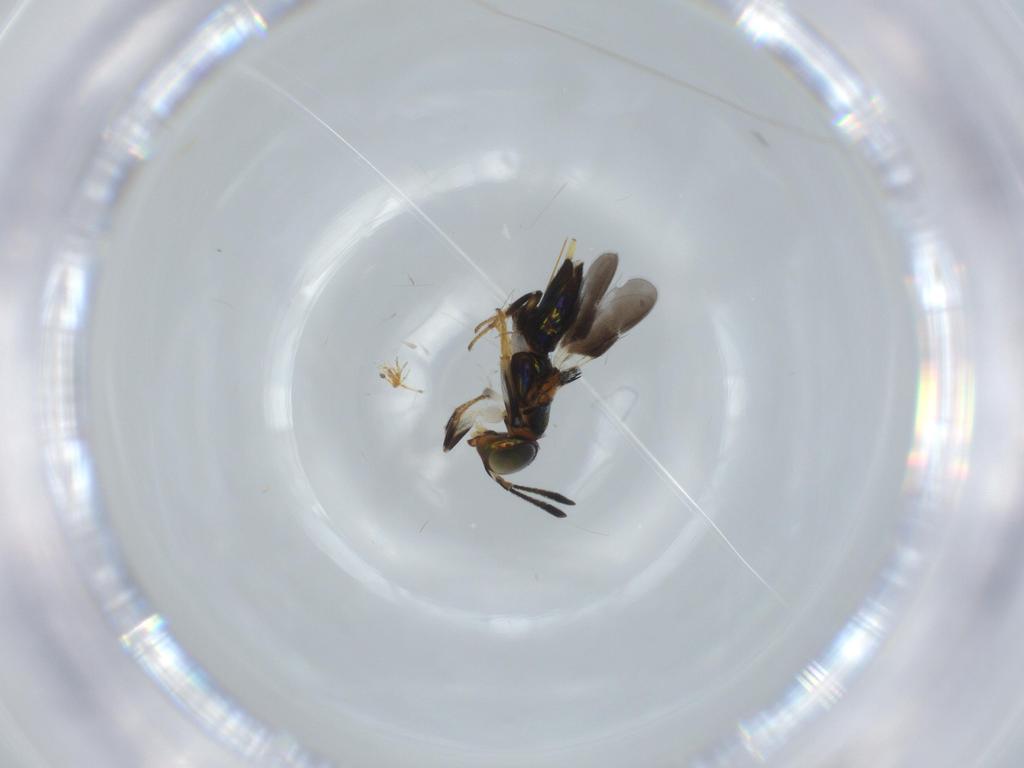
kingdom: Animalia
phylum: Arthropoda
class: Insecta
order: Hymenoptera
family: Encyrtidae
